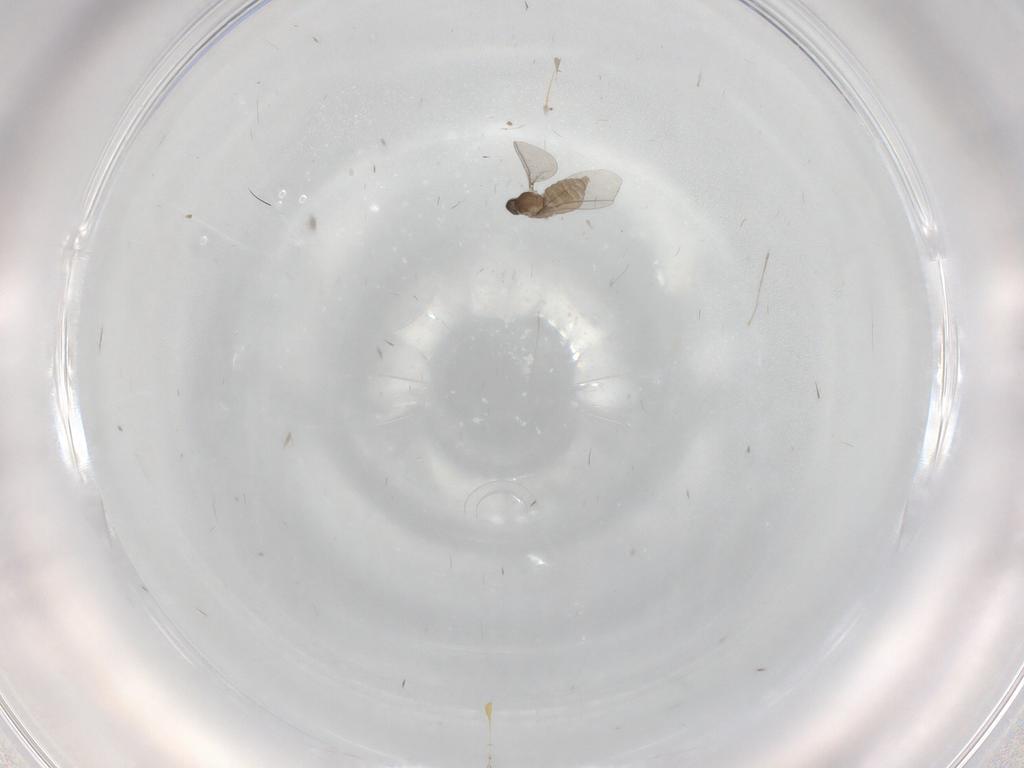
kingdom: Animalia
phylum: Arthropoda
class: Insecta
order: Diptera
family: Cecidomyiidae
